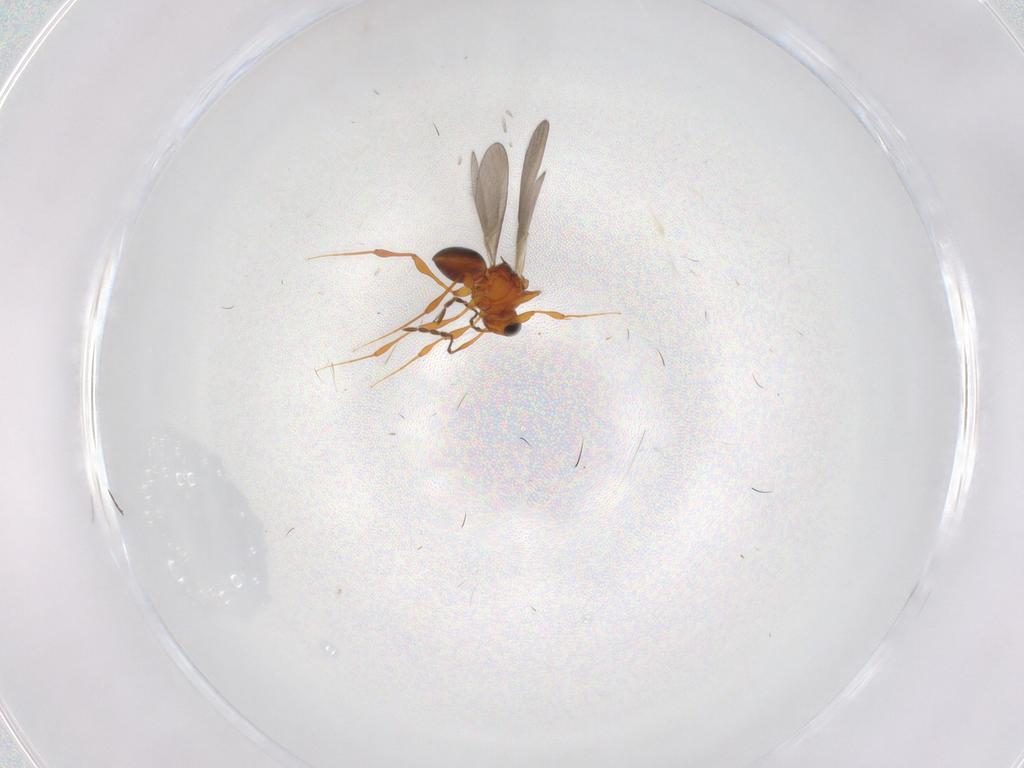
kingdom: Animalia
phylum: Arthropoda
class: Insecta
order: Hymenoptera
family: Platygastridae
